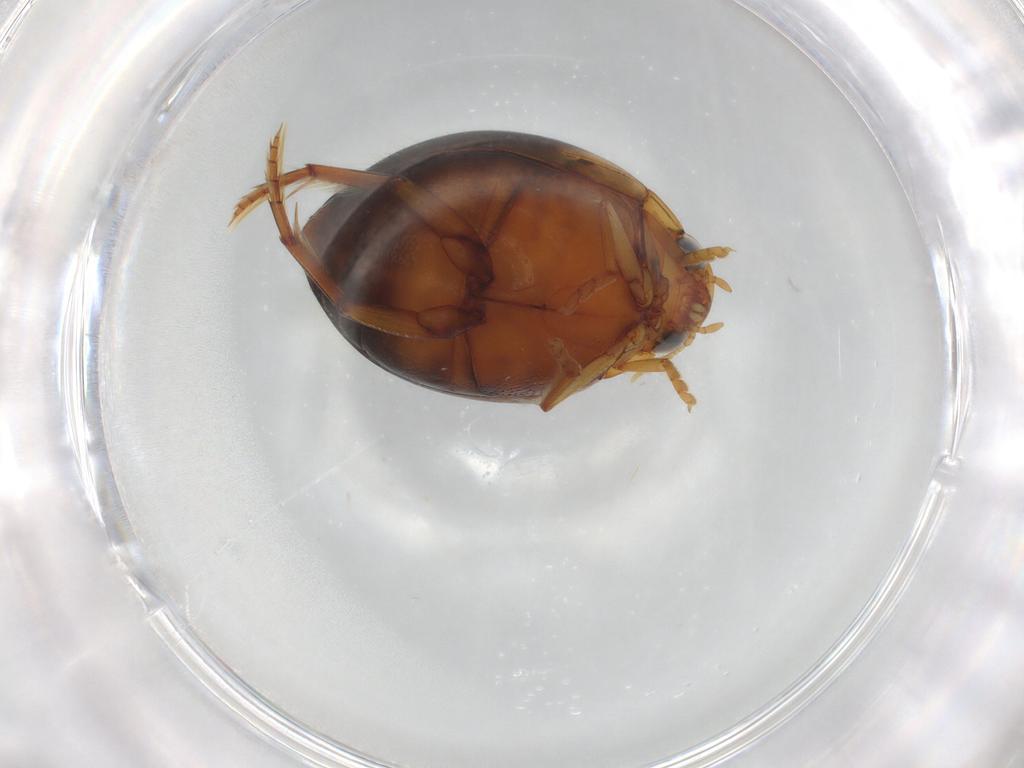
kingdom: Animalia
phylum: Arthropoda
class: Insecta
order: Coleoptera
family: Dytiscidae
